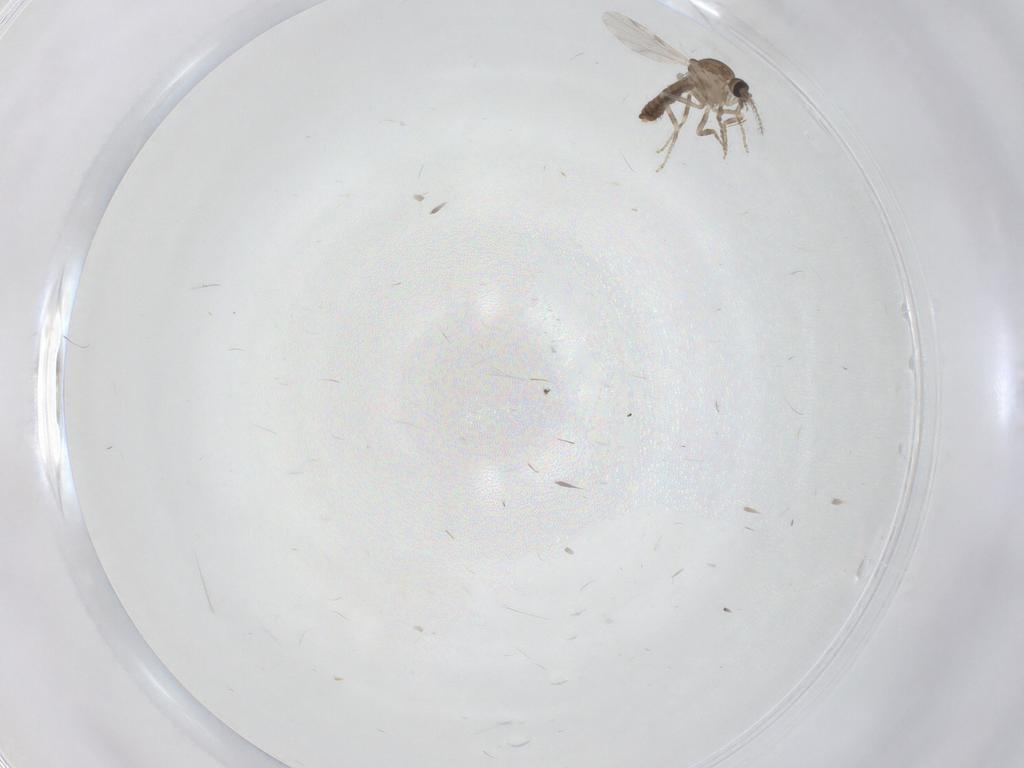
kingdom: Animalia
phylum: Arthropoda
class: Insecta
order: Diptera
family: Ceratopogonidae
